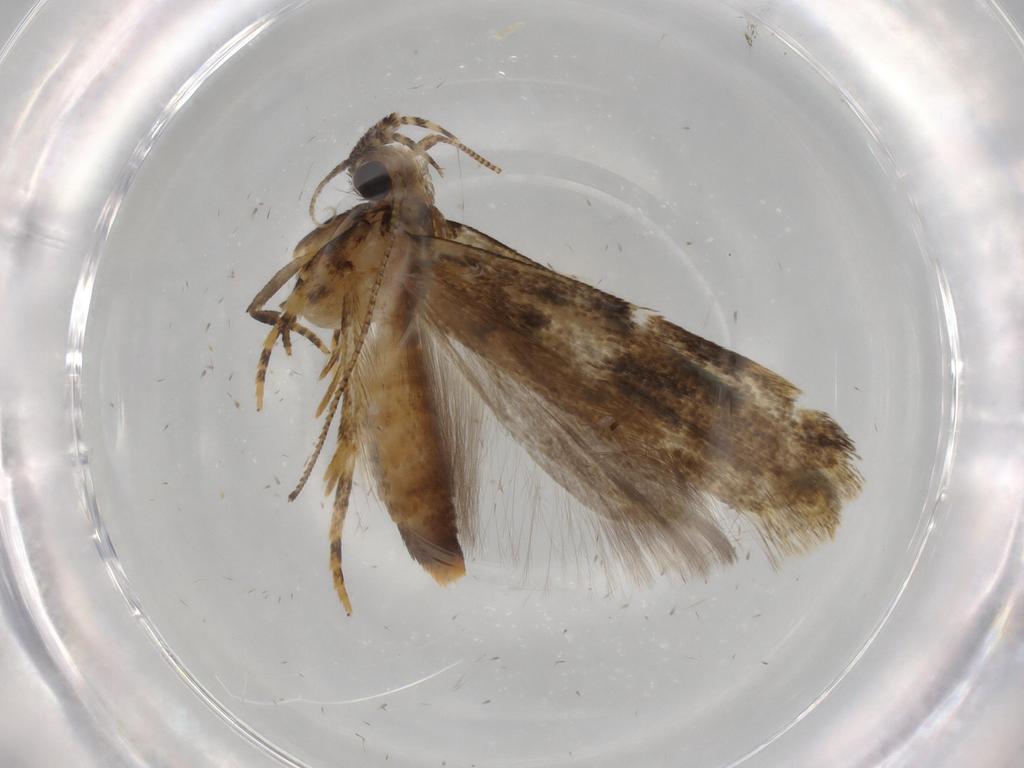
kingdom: Animalia
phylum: Arthropoda
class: Insecta
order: Lepidoptera
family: Gelechiidae
